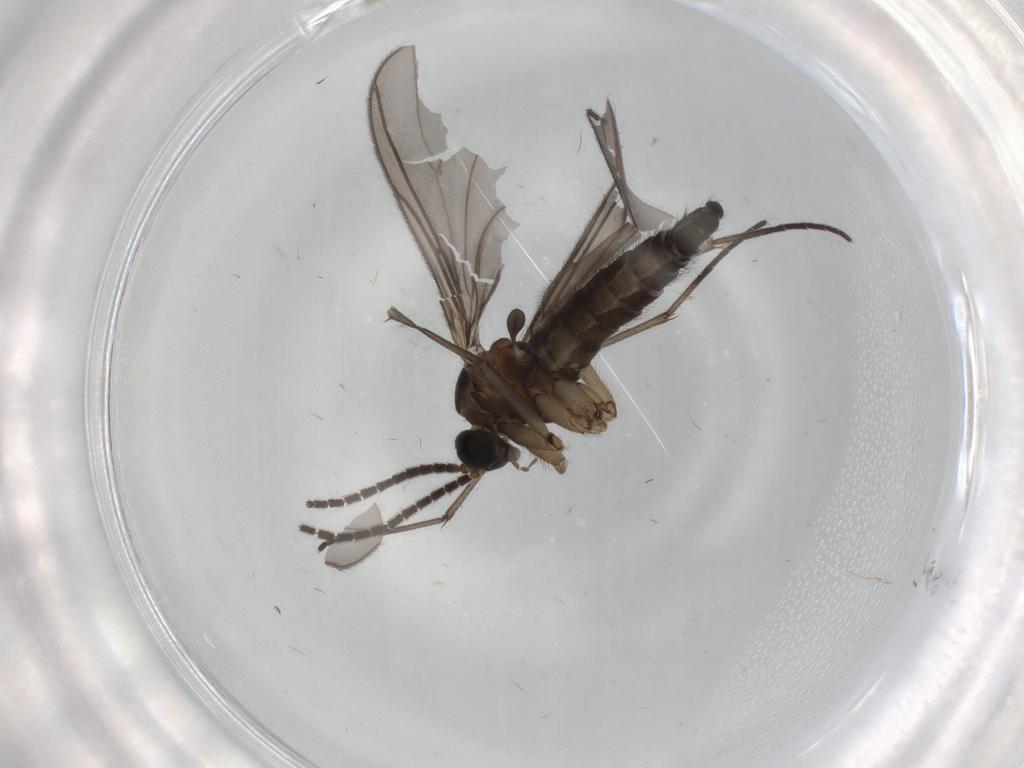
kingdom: Animalia
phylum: Arthropoda
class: Insecta
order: Diptera
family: Sciaridae
